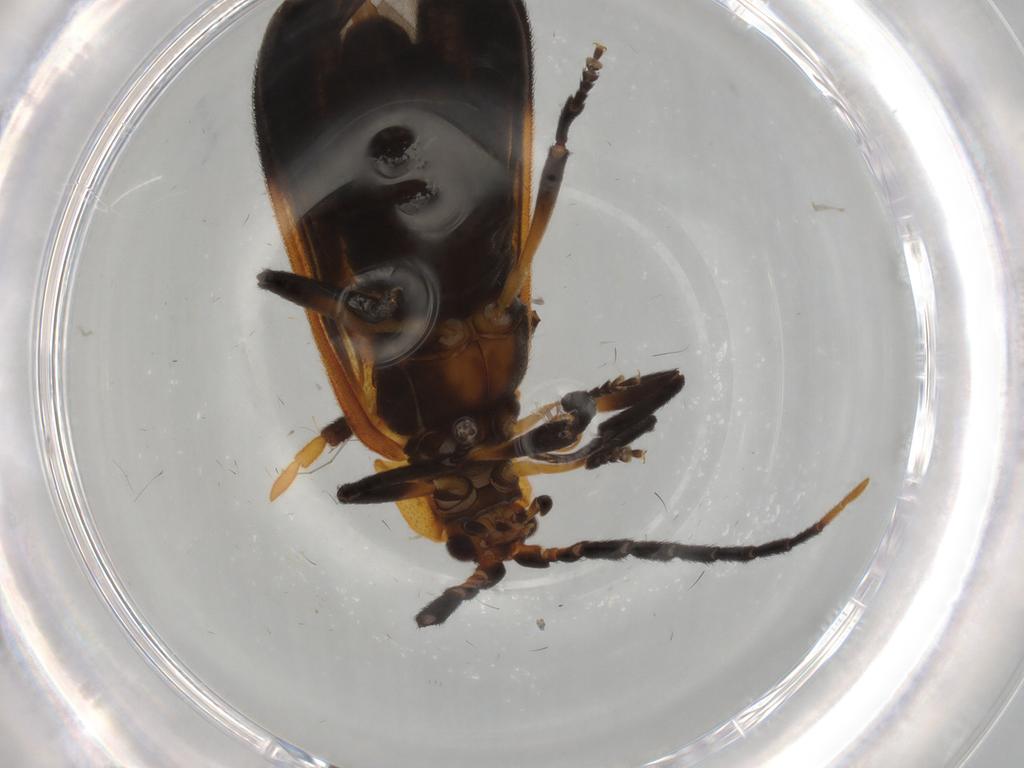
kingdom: Animalia
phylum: Arthropoda
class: Insecta
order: Coleoptera
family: Lycidae
